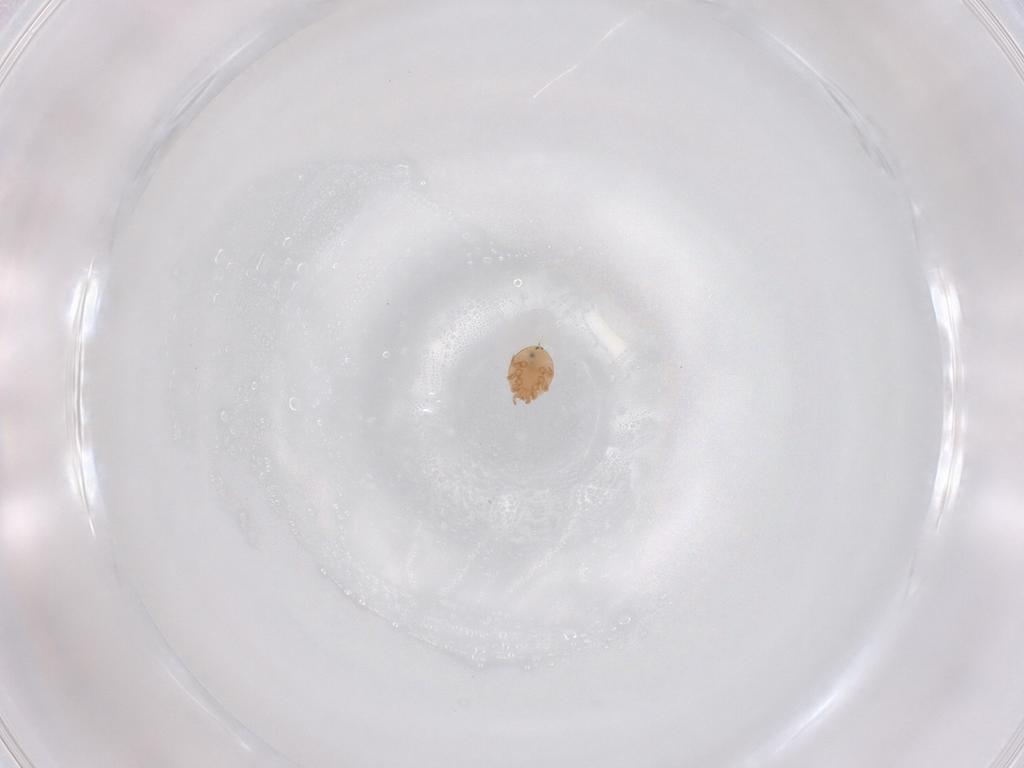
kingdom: Animalia
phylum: Arthropoda
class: Arachnida
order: Mesostigmata
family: Trematuridae
